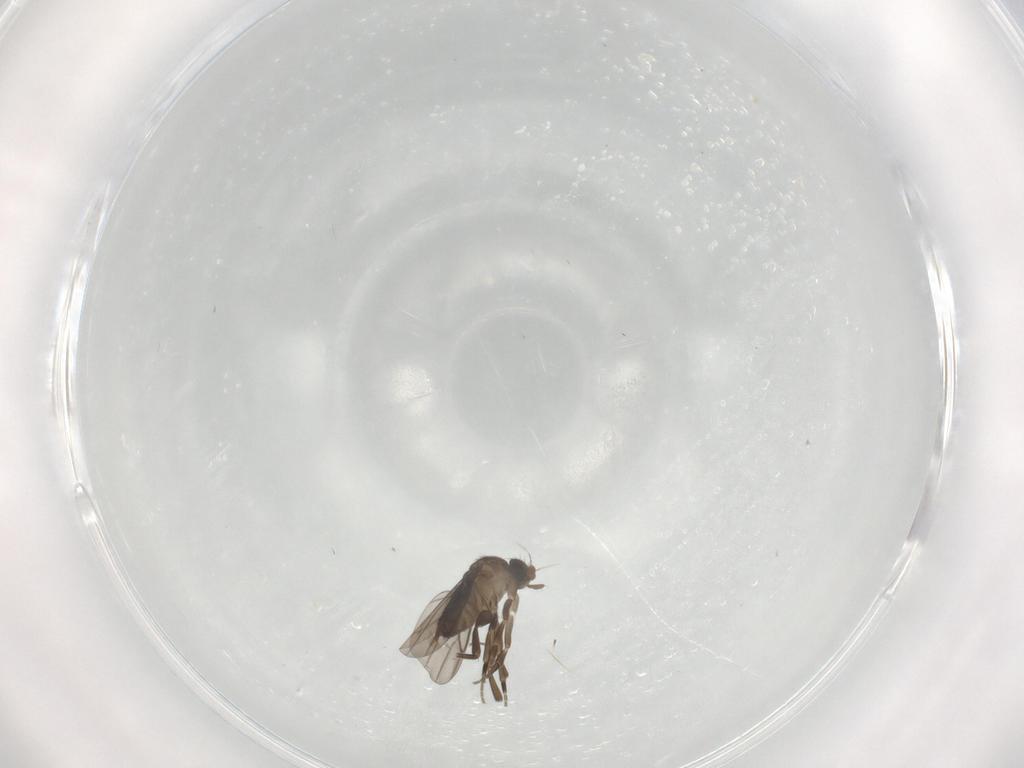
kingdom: Animalia
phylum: Arthropoda
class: Insecta
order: Diptera
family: Phoridae
